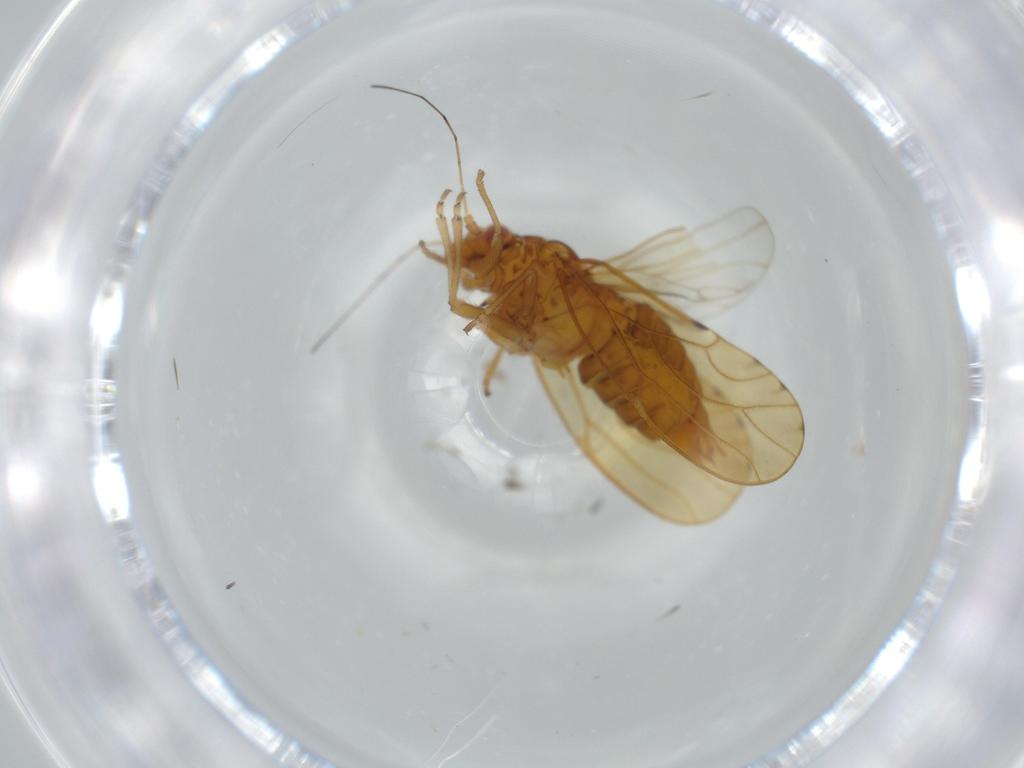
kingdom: Animalia
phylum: Arthropoda
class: Insecta
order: Hemiptera
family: Psylloidea_incertae_sedis
